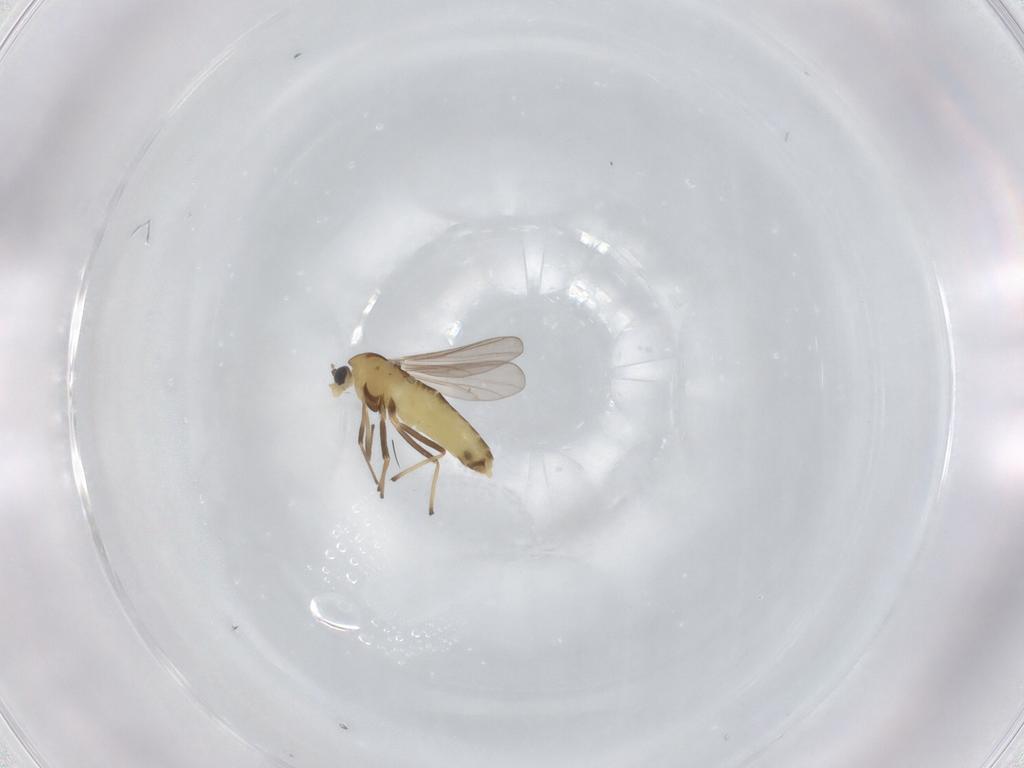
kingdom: Animalia
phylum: Arthropoda
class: Insecta
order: Diptera
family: Chironomidae
